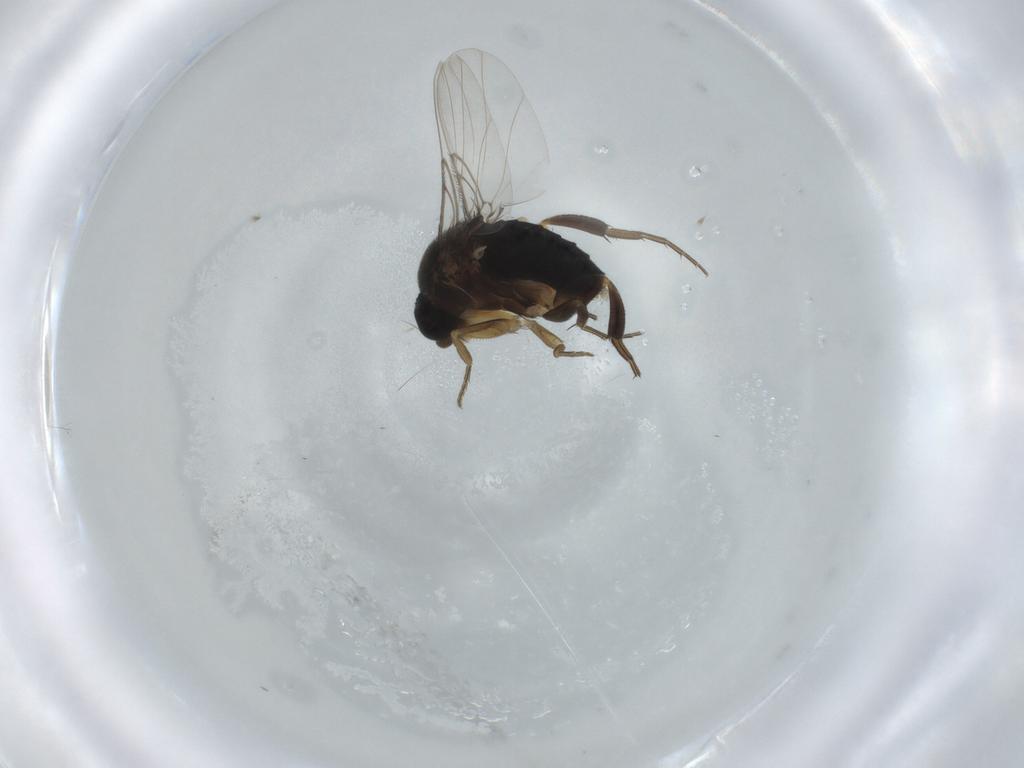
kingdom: Animalia
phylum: Arthropoda
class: Insecta
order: Diptera
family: Phoridae
